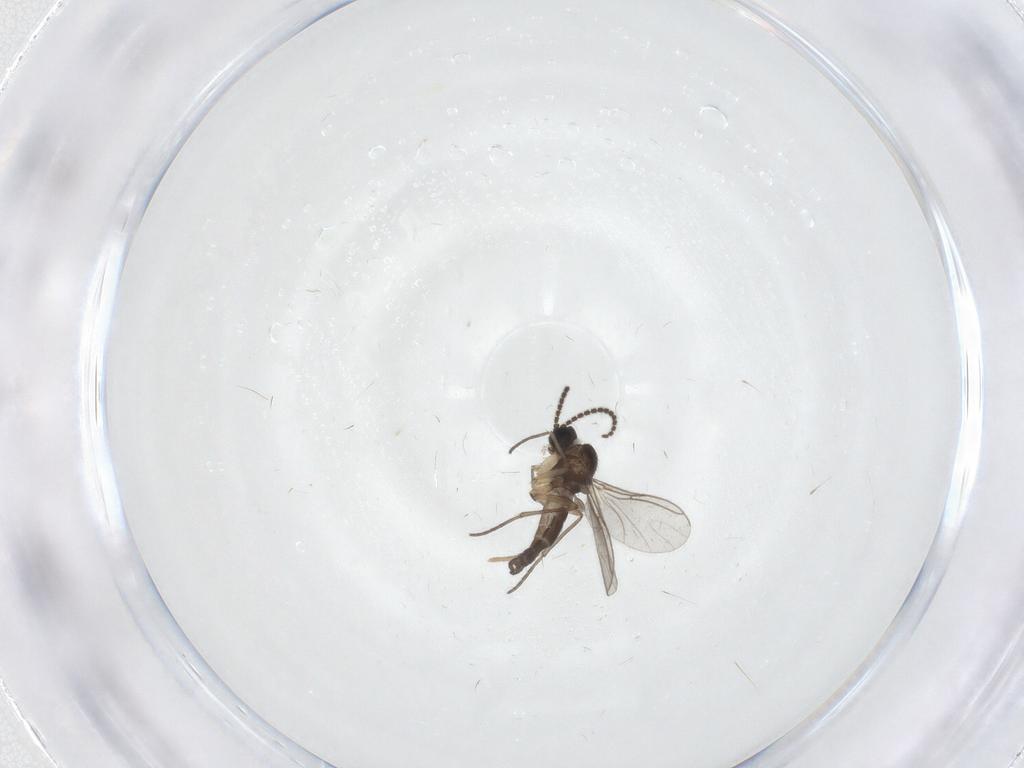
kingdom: Animalia
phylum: Arthropoda
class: Insecta
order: Diptera
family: Sciaridae
